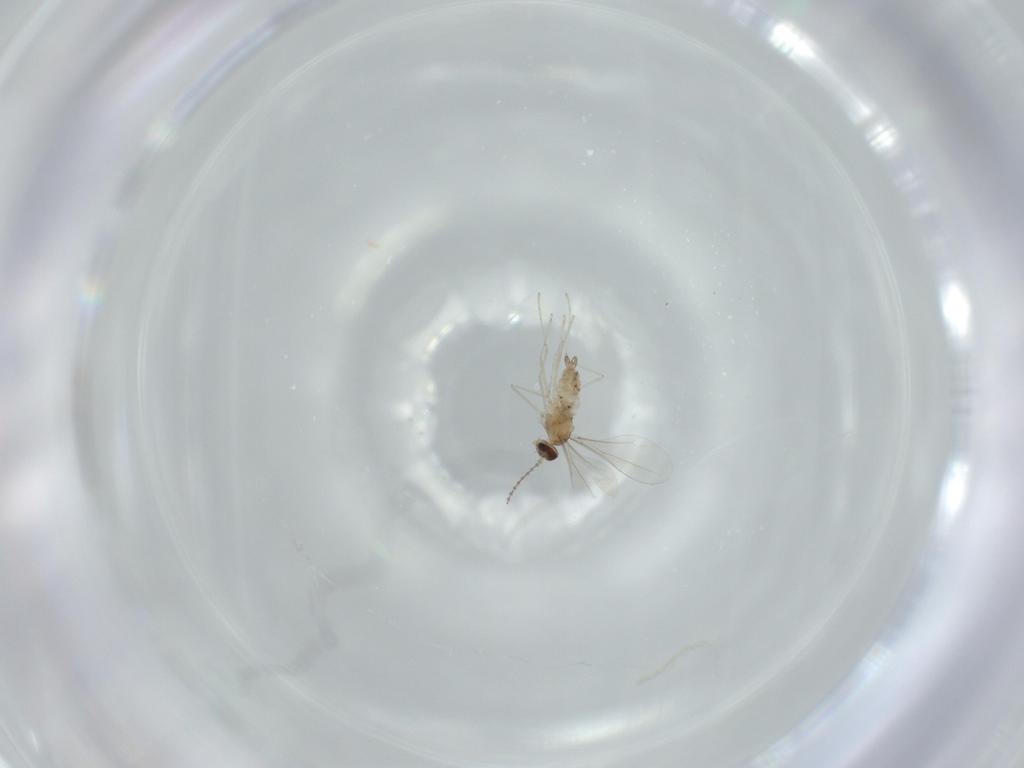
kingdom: Animalia
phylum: Arthropoda
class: Insecta
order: Diptera
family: Cecidomyiidae
